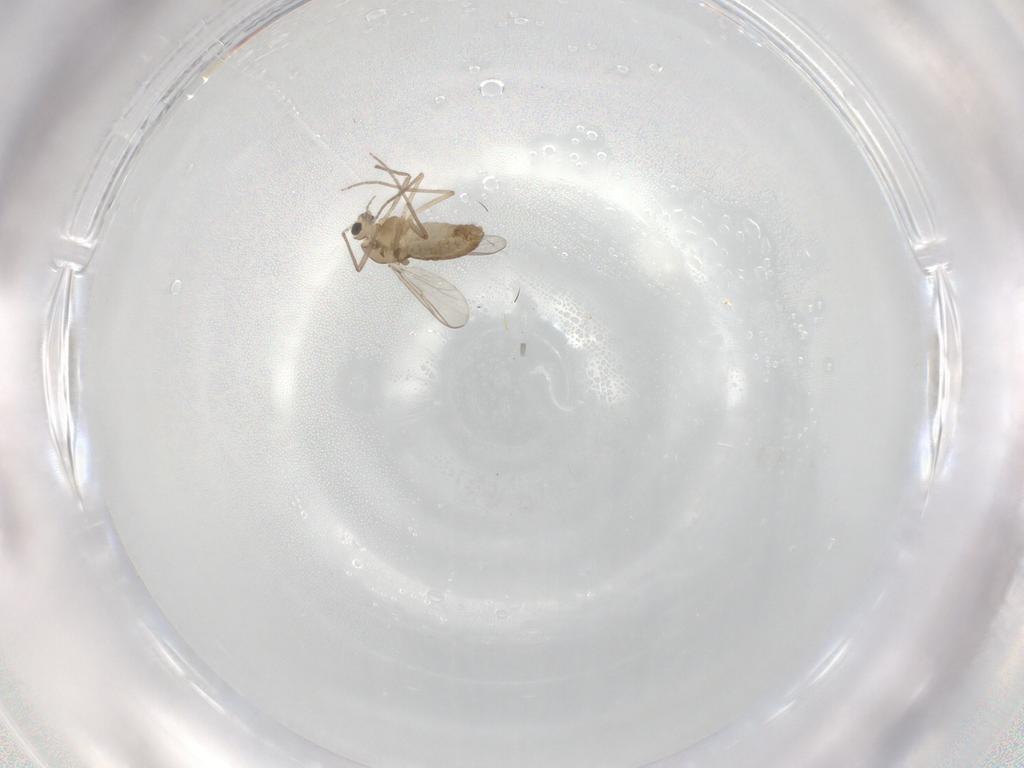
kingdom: Animalia
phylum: Arthropoda
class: Insecta
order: Diptera
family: Chironomidae
